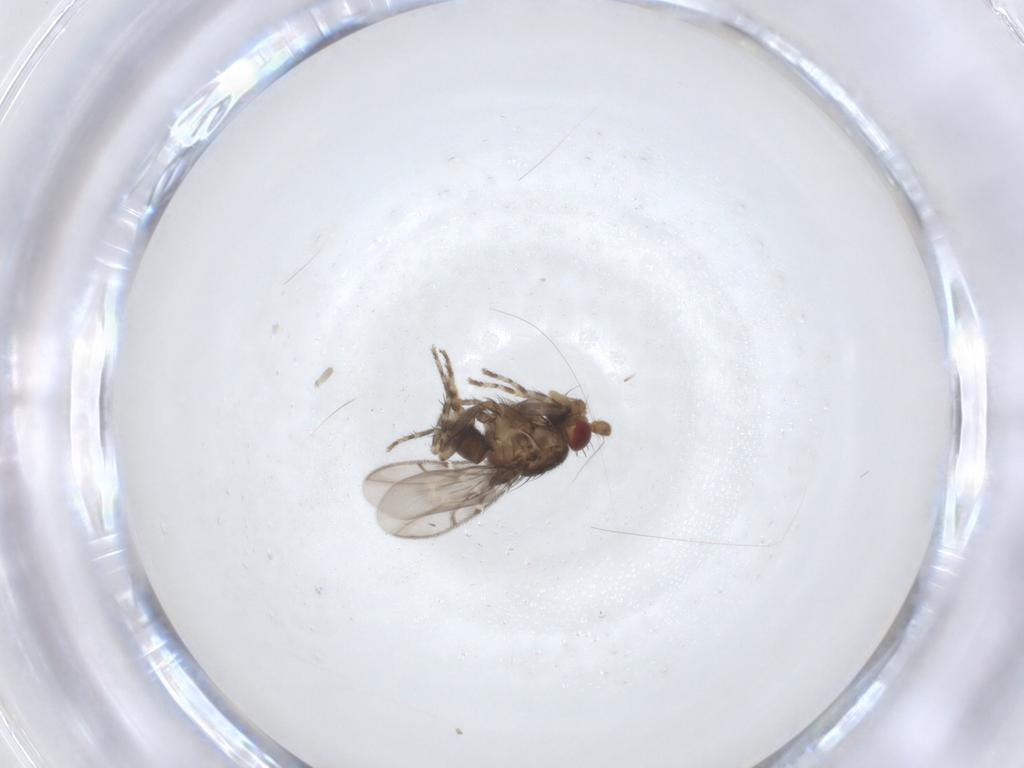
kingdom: Animalia
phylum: Arthropoda
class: Insecta
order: Diptera
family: Sphaeroceridae
